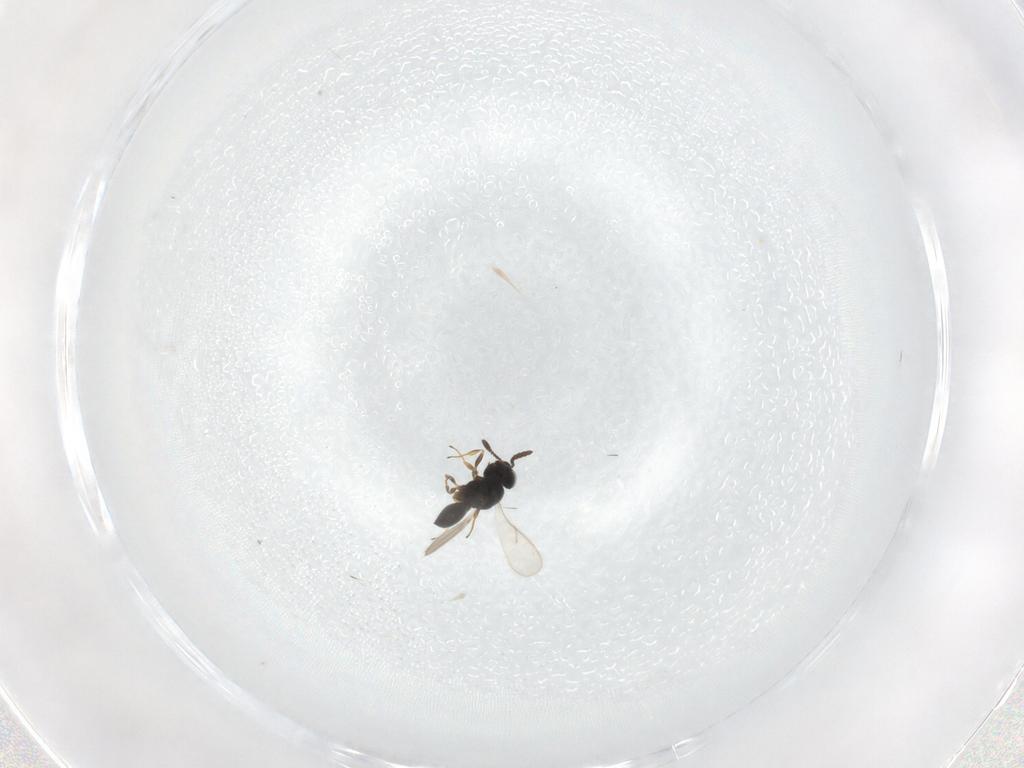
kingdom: Animalia
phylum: Arthropoda
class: Insecta
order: Hymenoptera
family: Scelionidae
